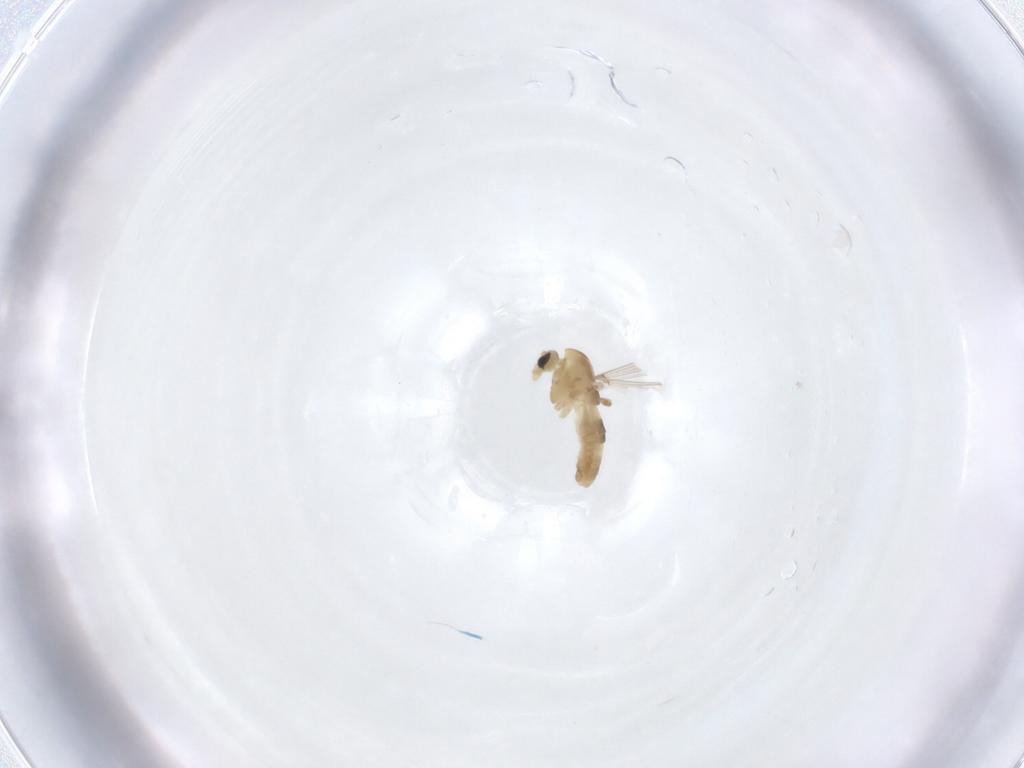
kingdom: Animalia
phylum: Arthropoda
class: Insecta
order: Diptera
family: Chironomidae
